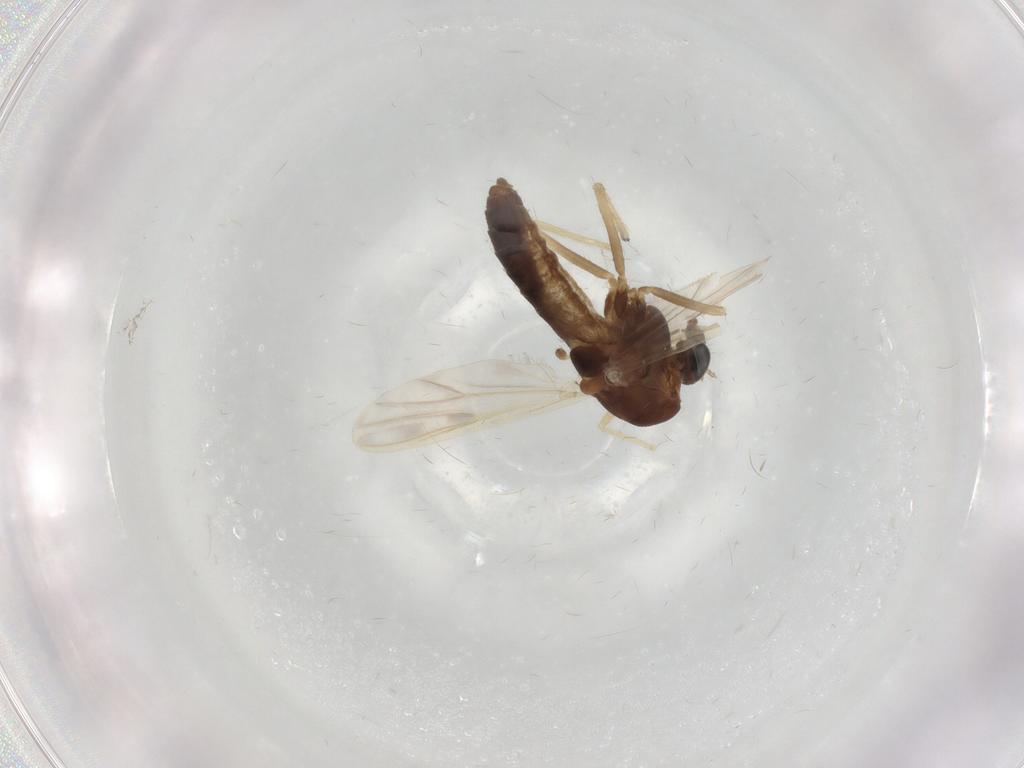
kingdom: Animalia
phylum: Arthropoda
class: Insecta
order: Diptera
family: Chironomidae
